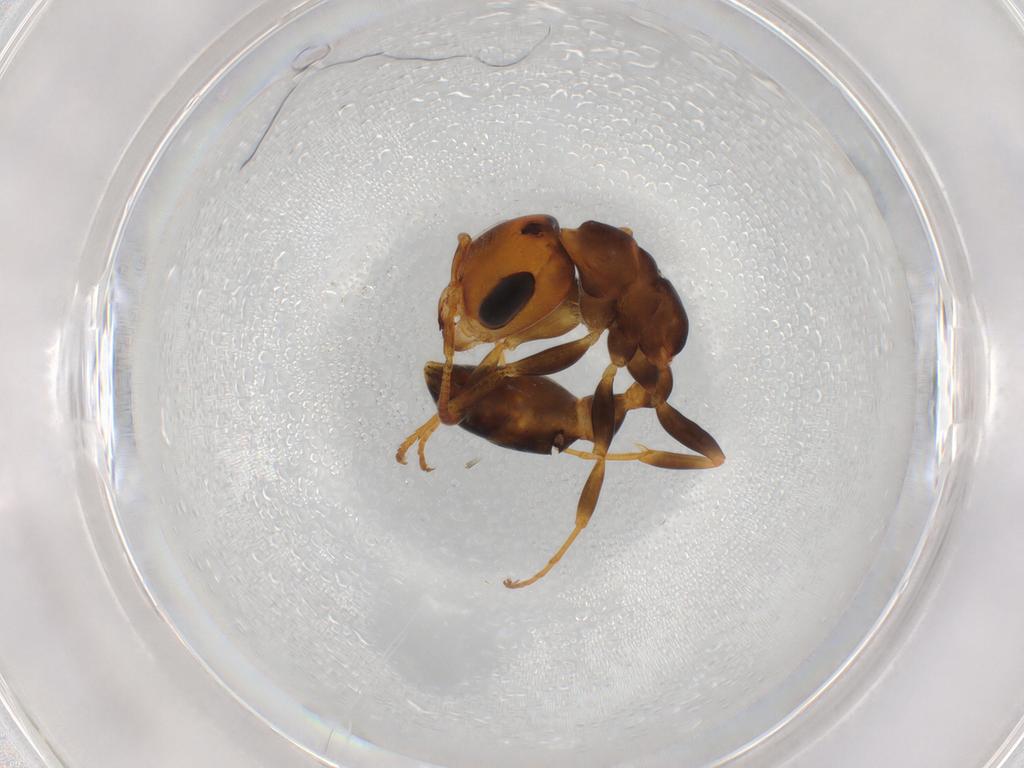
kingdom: Animalia
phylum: Arthropoda
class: Insecta
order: Hymenoptera
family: Formicidae
